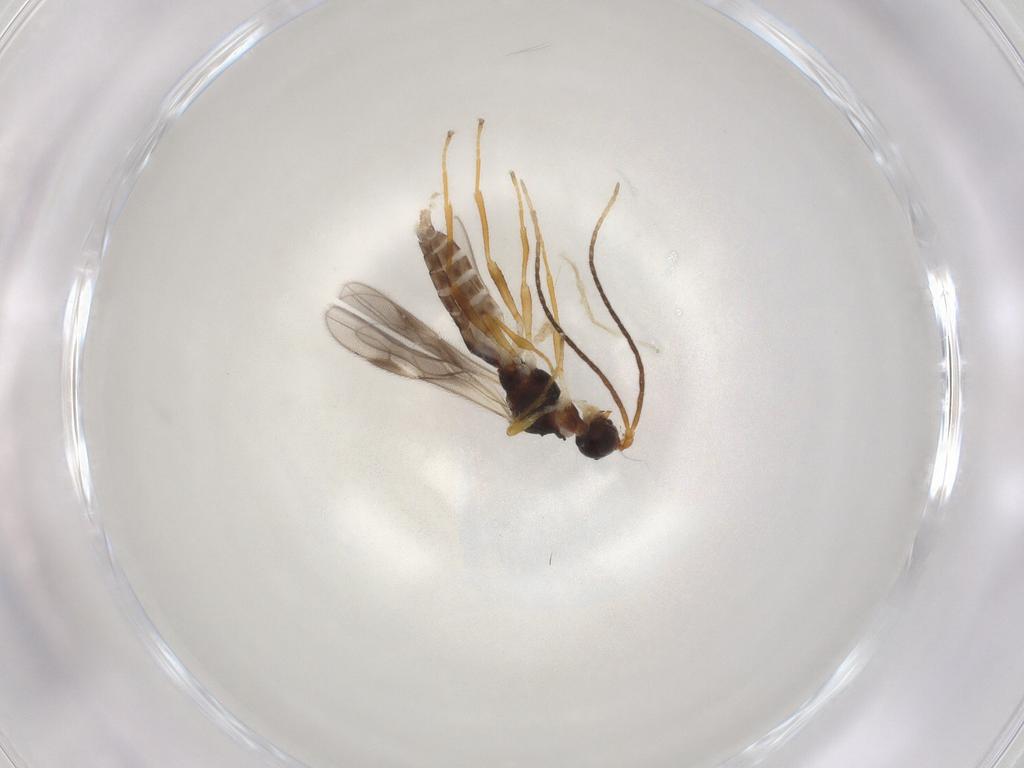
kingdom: Animalia
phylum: Arthropoda
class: Insecta
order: Hymenoptera
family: Braconidae
